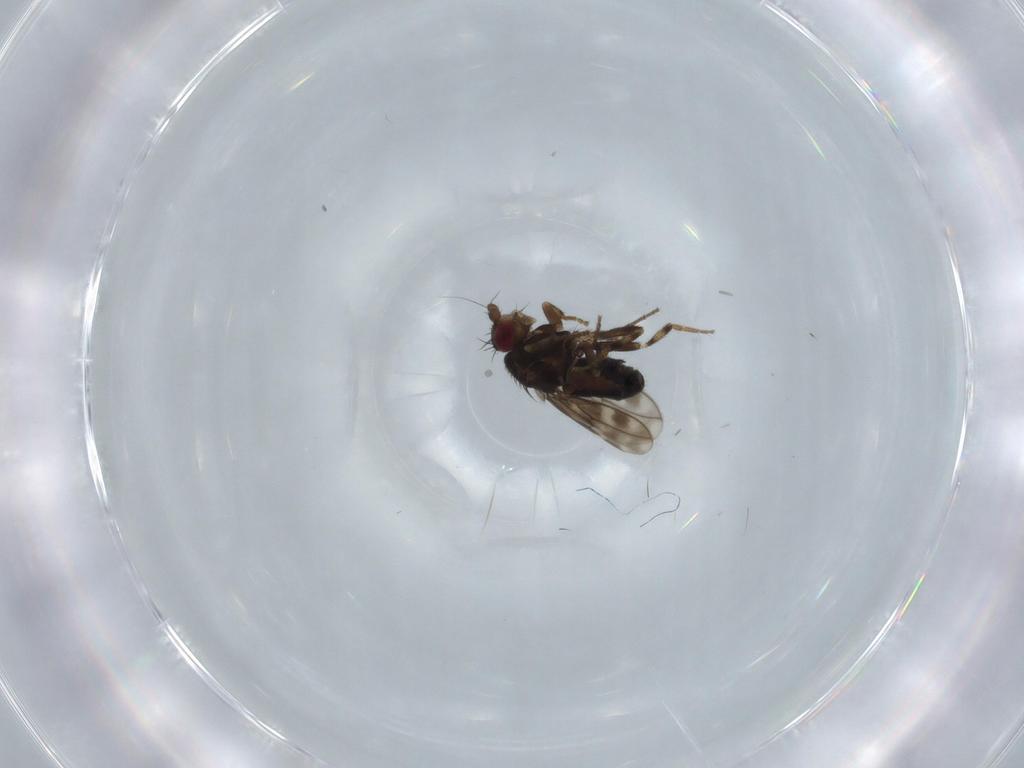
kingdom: Animalia
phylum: Arthropoda
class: Insecta
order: Diptera
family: Sphaeroceridae
